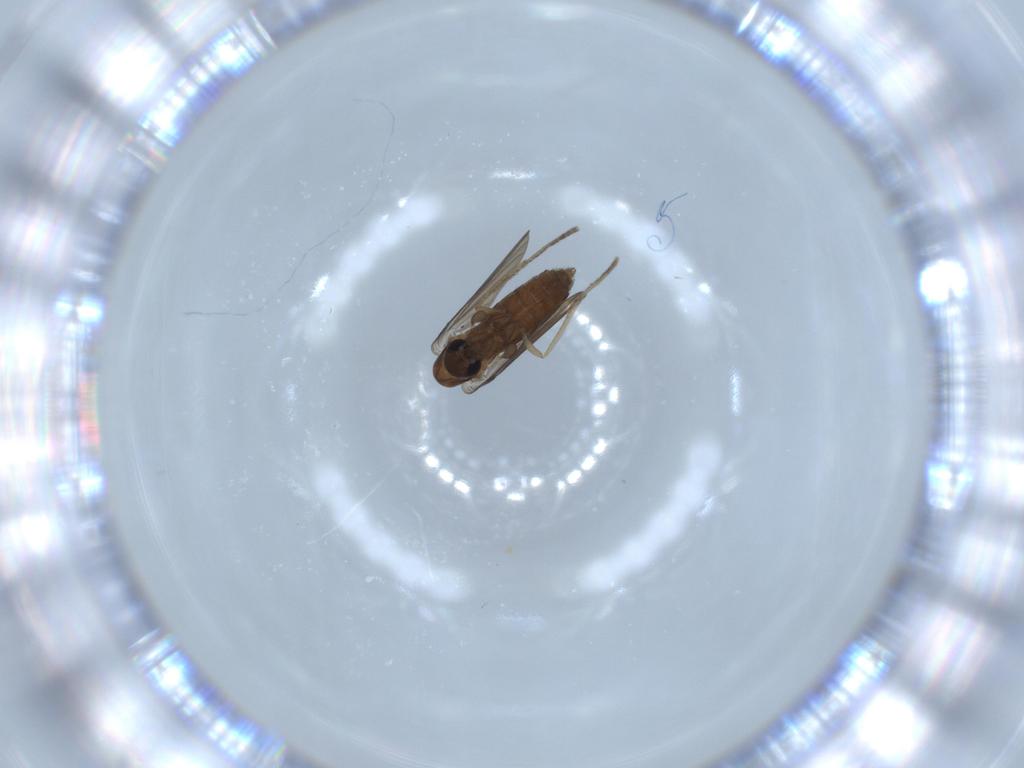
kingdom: Animalia
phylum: Arthropoda
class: Insecta
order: Diptera
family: Psychodidae
